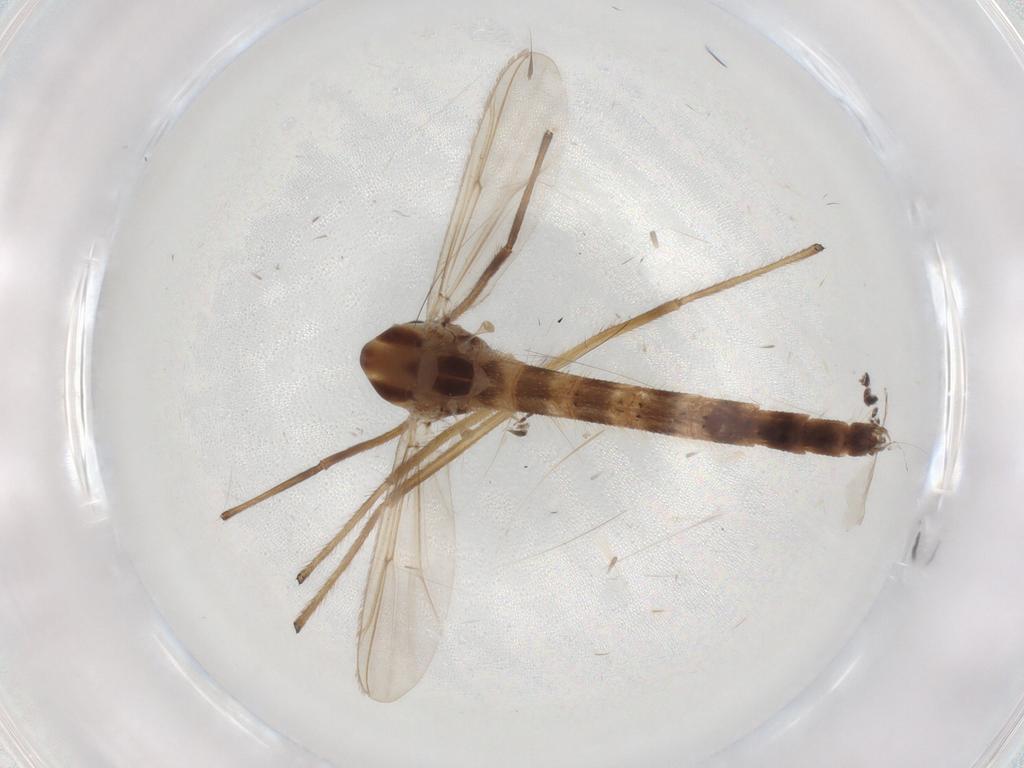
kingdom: Animalia
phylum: Arthropoda
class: Insecta
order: Diptera
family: Chironomidae
